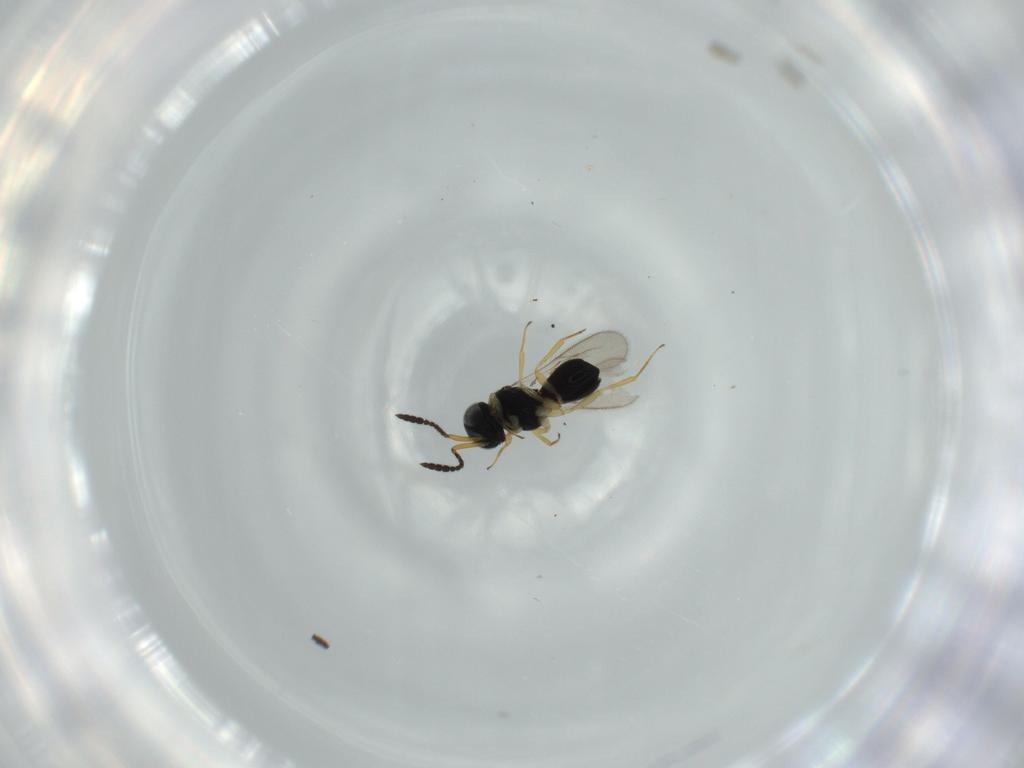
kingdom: Animalia
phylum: Arthropoda
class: Insecta
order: Hymenoptera
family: Scelionidae
